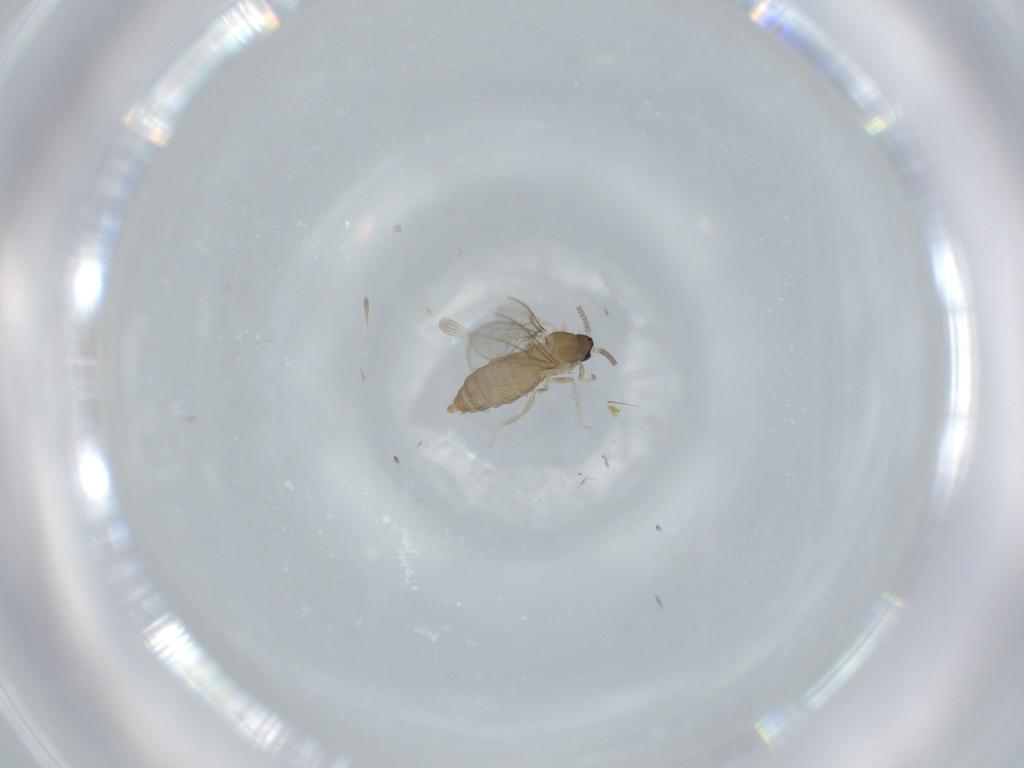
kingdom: Animalia
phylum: Arthropoda
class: Insecta
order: Diptera
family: Cecidomyiidae
